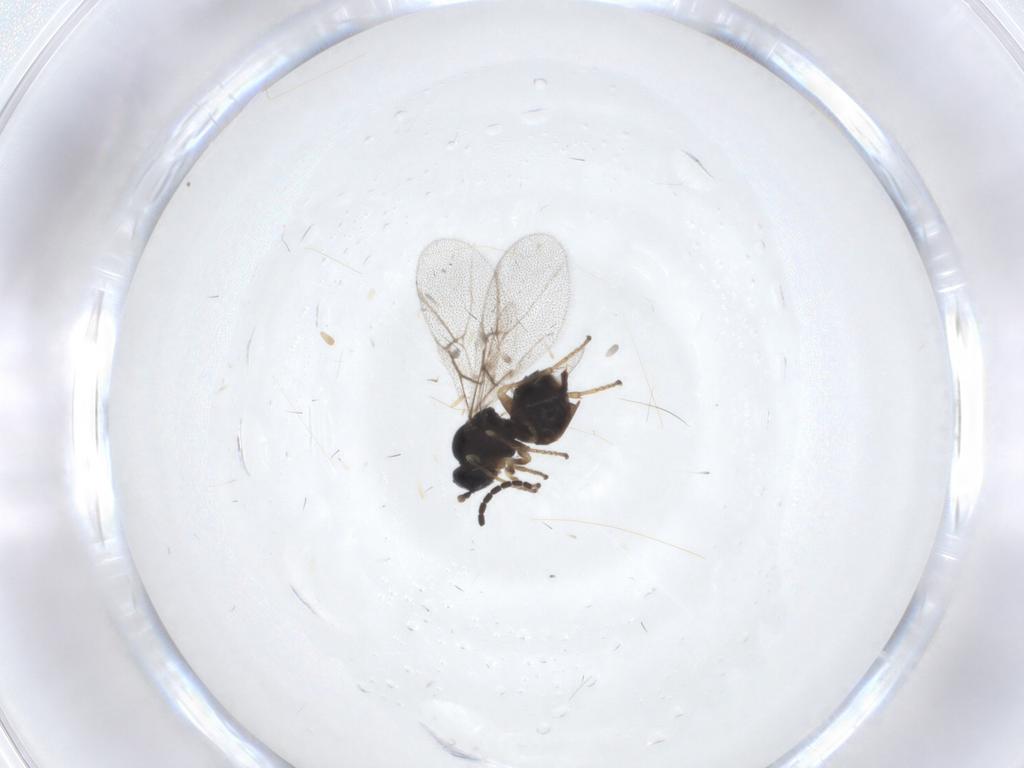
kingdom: Animalia
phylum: Arthropoda
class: Insecta
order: Hymenoptera
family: Cynipidae
